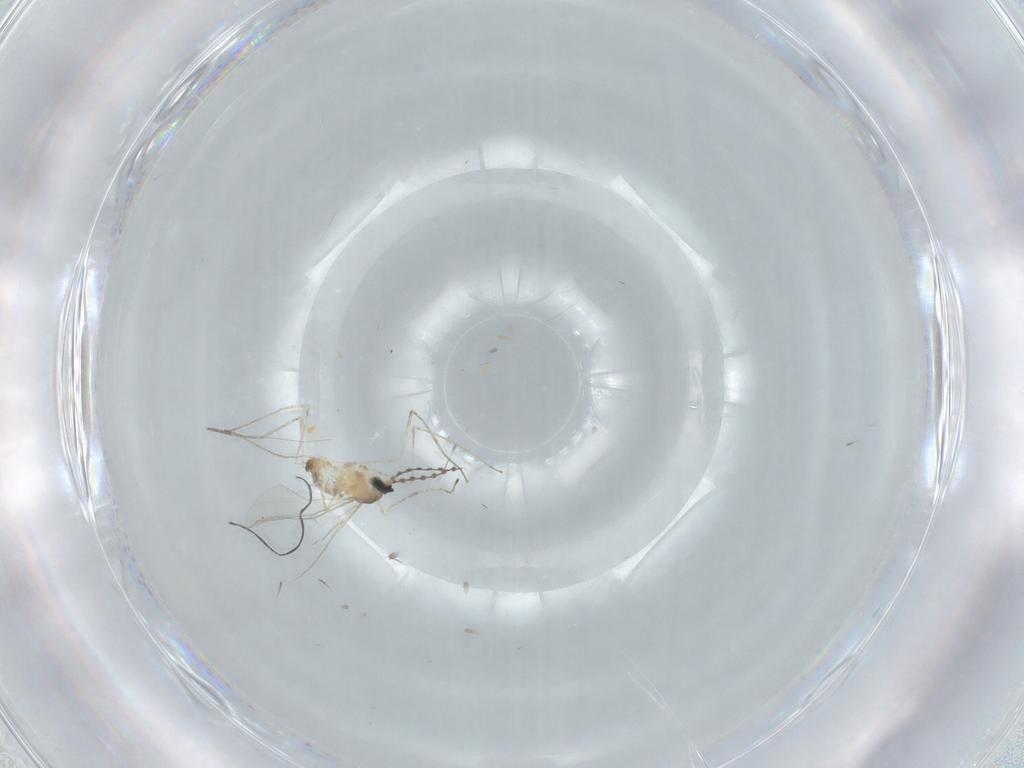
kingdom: Animalia
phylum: Arthropoda
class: Insecta
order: Diptera
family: Cecidomyiidae
